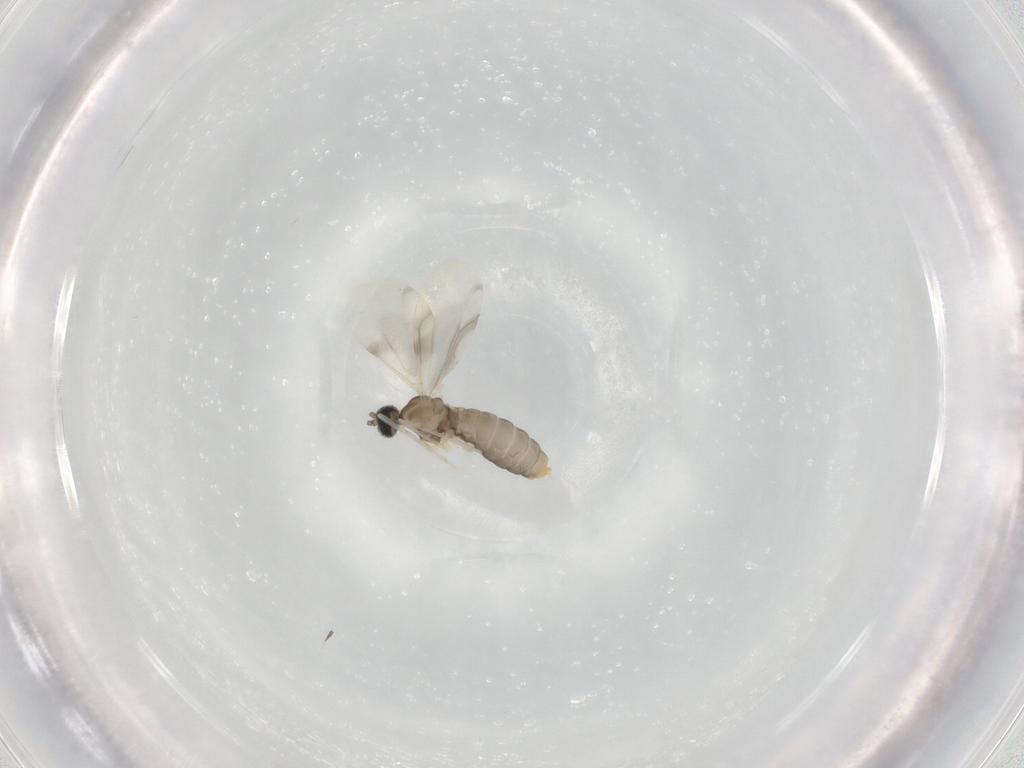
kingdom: Animalia
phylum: Arthropoda
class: Insecta
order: Diptera
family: Cecidomyiidae
